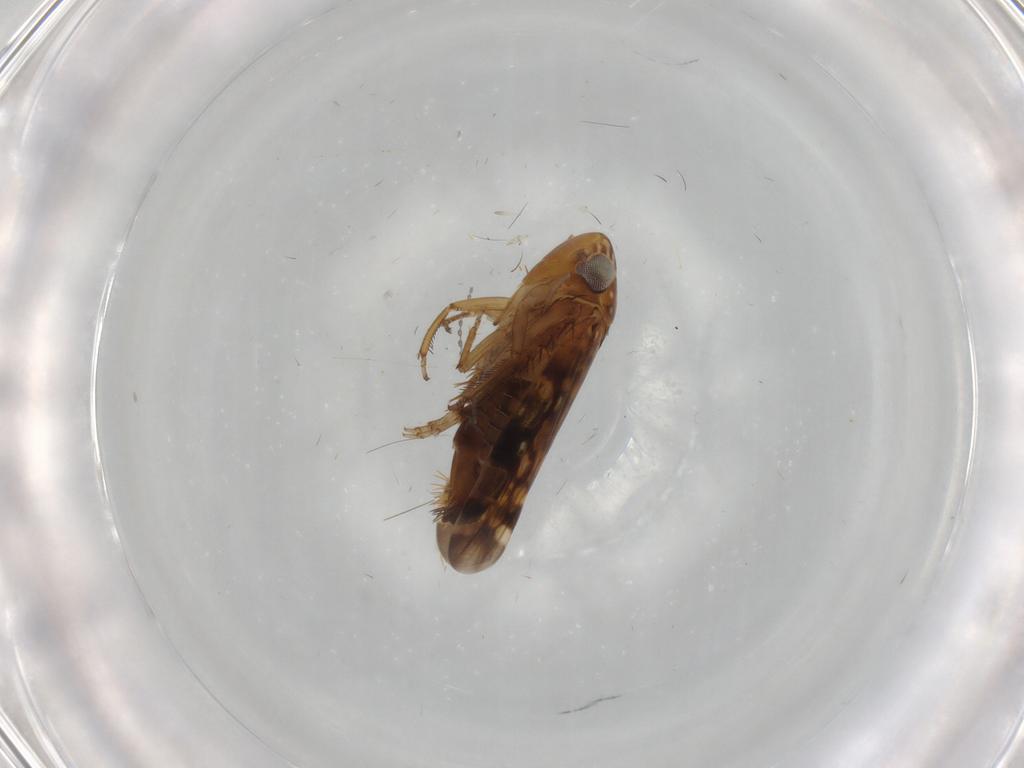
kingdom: Animalia
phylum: Arthropoda
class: Insecta
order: Hemiptera
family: Cicadellidae
